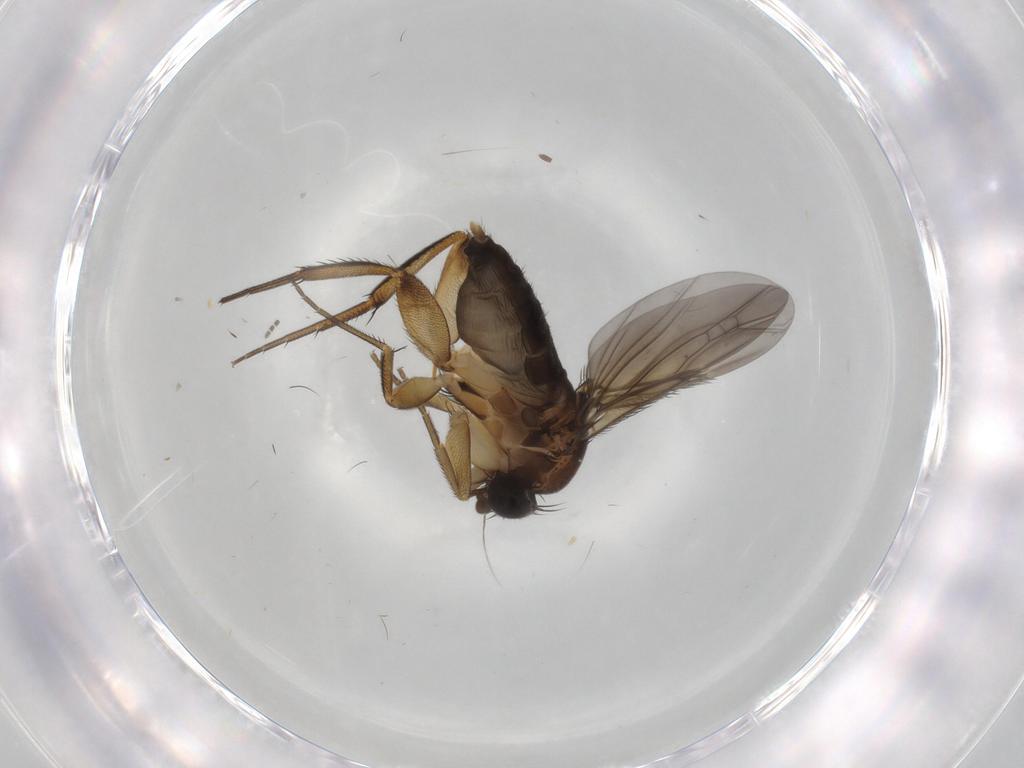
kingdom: Animalia
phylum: Arthropoda
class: Insecta
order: Diptera
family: Phoridae
